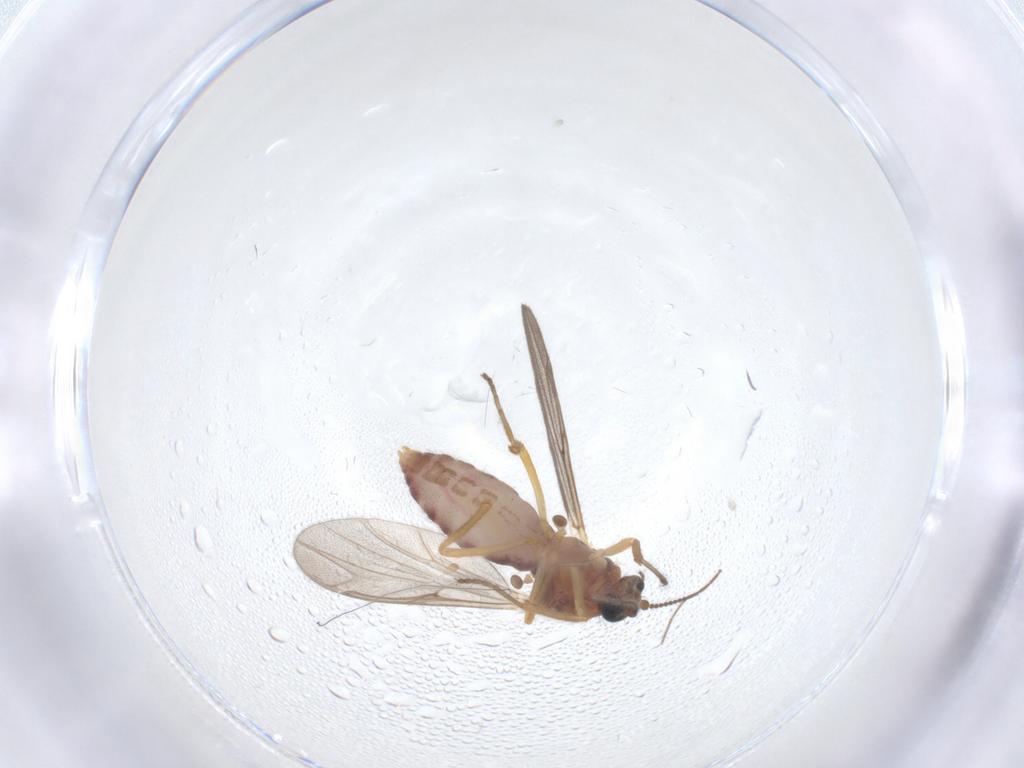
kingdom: Animalia
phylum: Arthropoda
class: Insecta
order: Diptera
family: Ceratopogonidae
